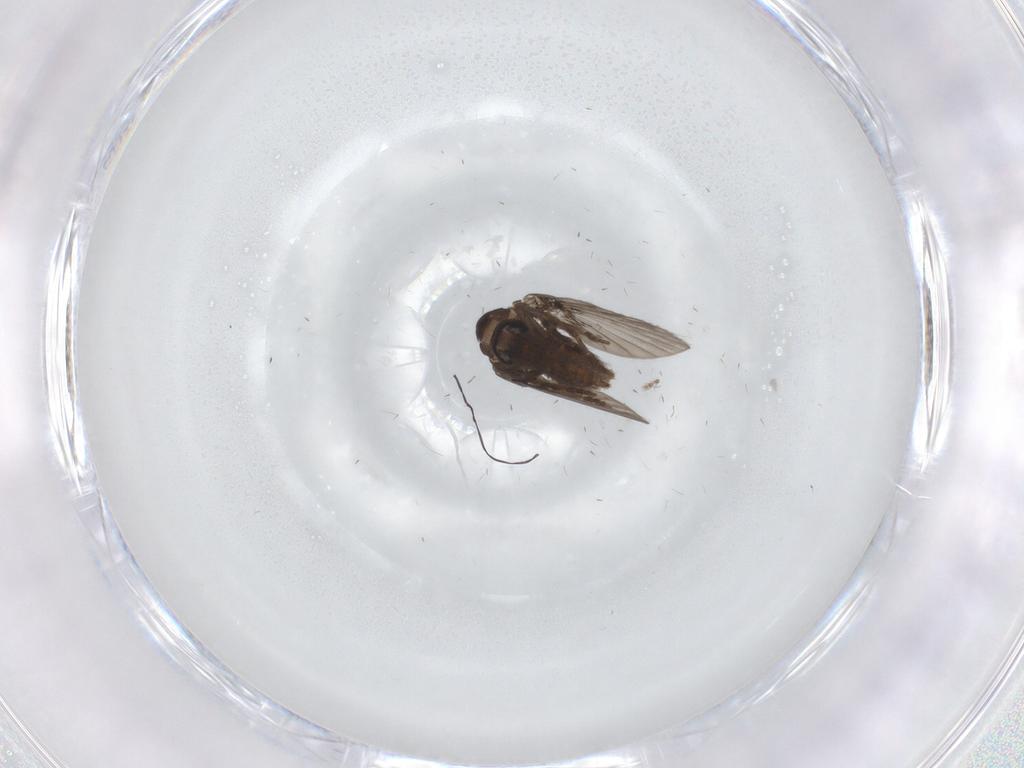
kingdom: Animalia
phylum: Arthropoda
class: Insecta
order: Diptera
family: Psychodidae
